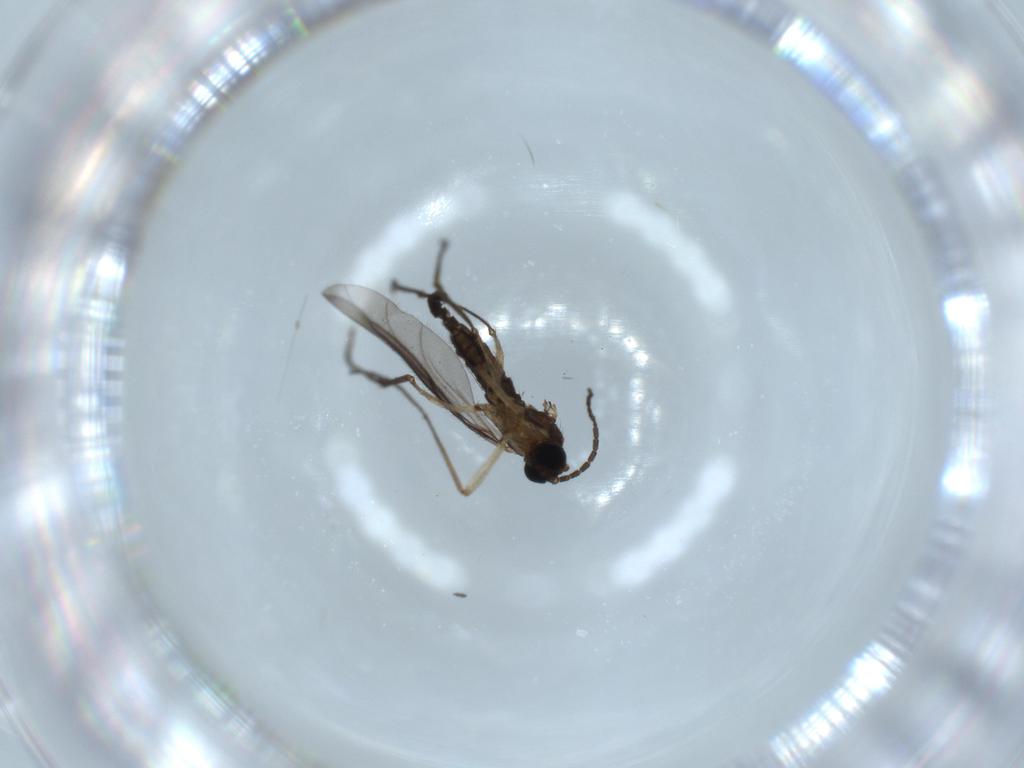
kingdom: Animalia
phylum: Arthropoda
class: Insecta
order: Diptera
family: Sciaridae
